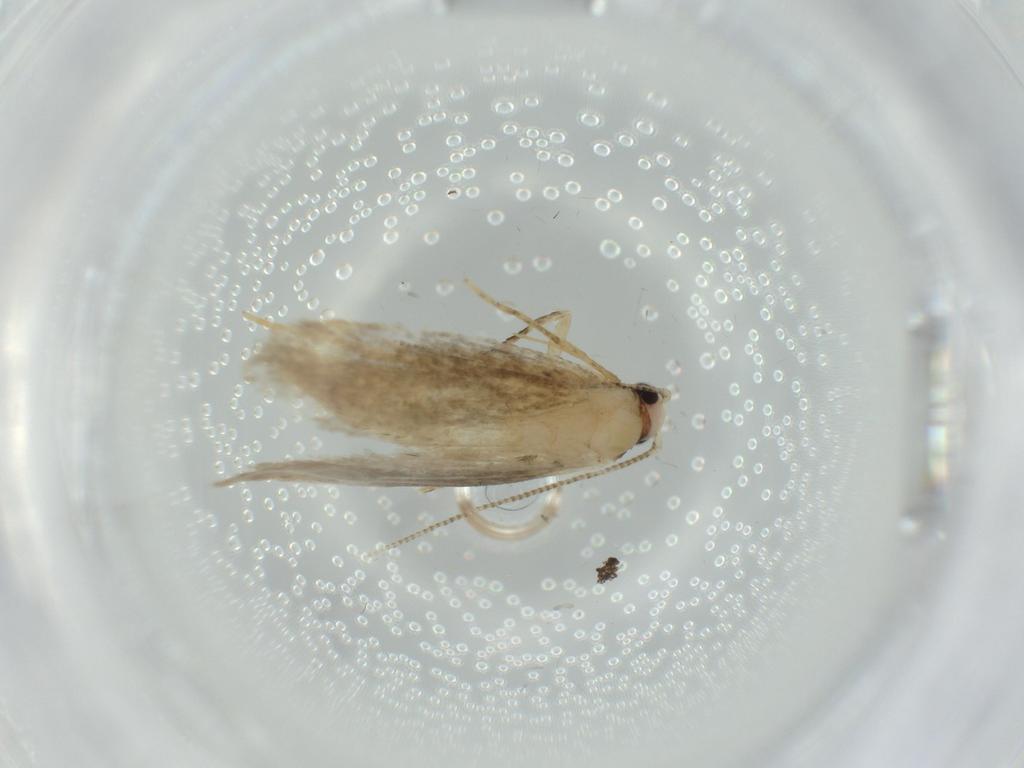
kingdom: Animalia
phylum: Arthropoda
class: Insecta
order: Lepidoptera
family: Tineidae
